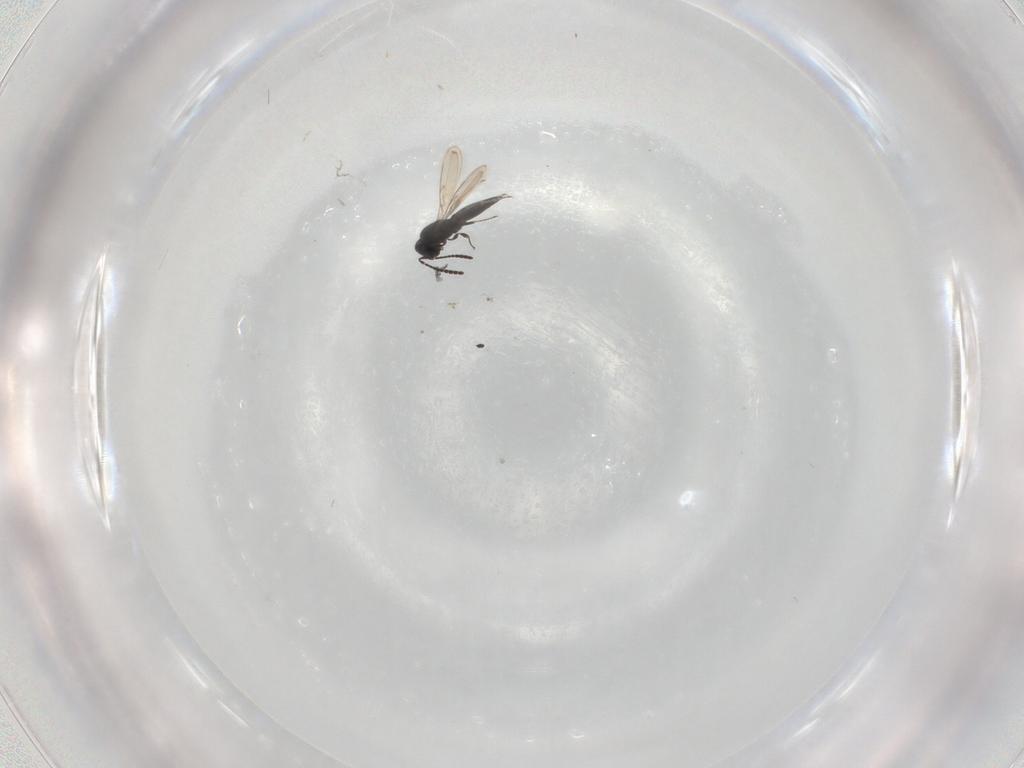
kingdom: Animalia
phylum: Arthropoda
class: Insecta
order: Hymenoptera
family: Scelionidae
